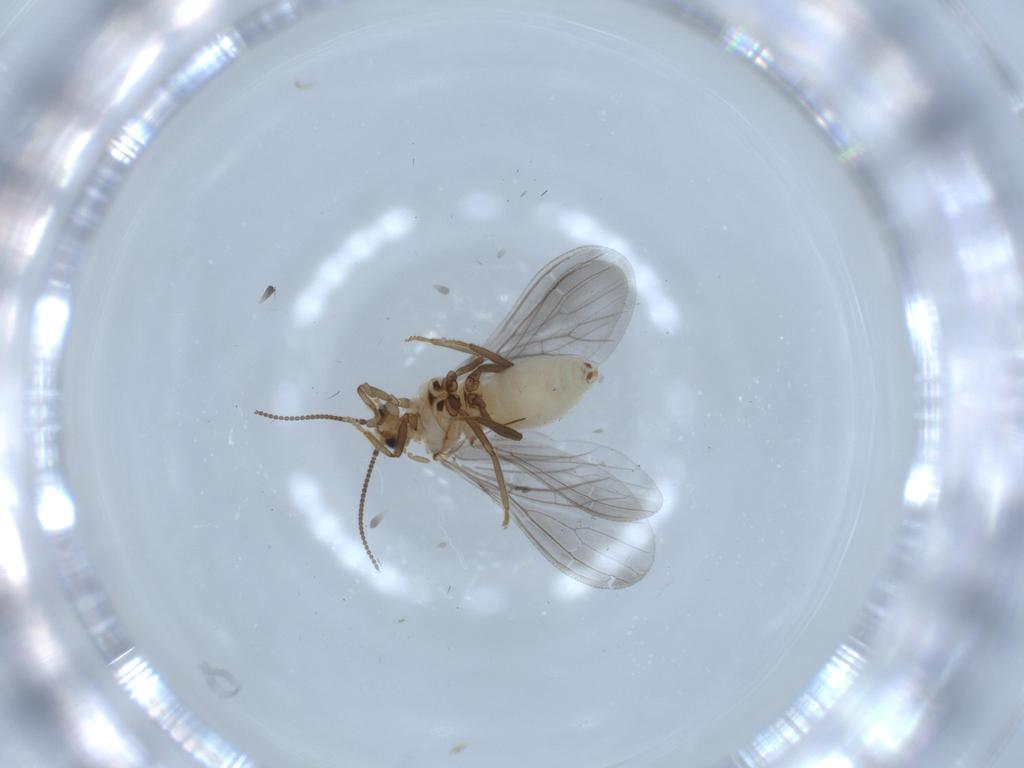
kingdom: Animalia
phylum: Arthropoda
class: Insecta
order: Neuroptera
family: Coniopterygidae
